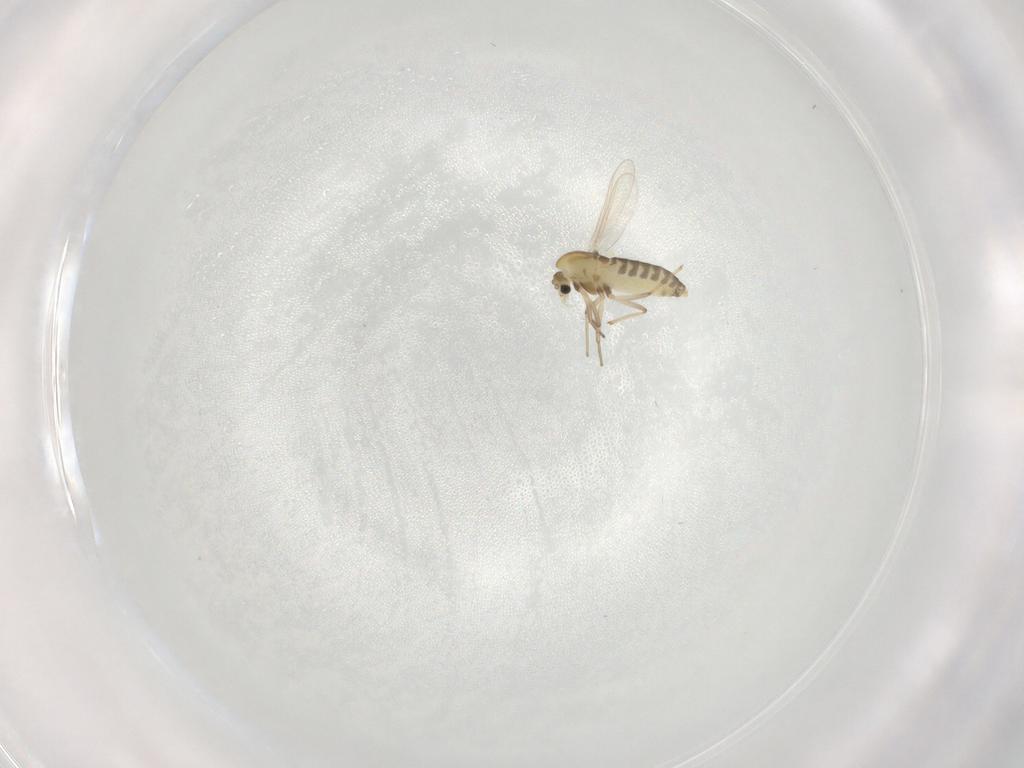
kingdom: Animalia
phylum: Arthropoda
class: Insecta
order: Diptera
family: Chironomidae
